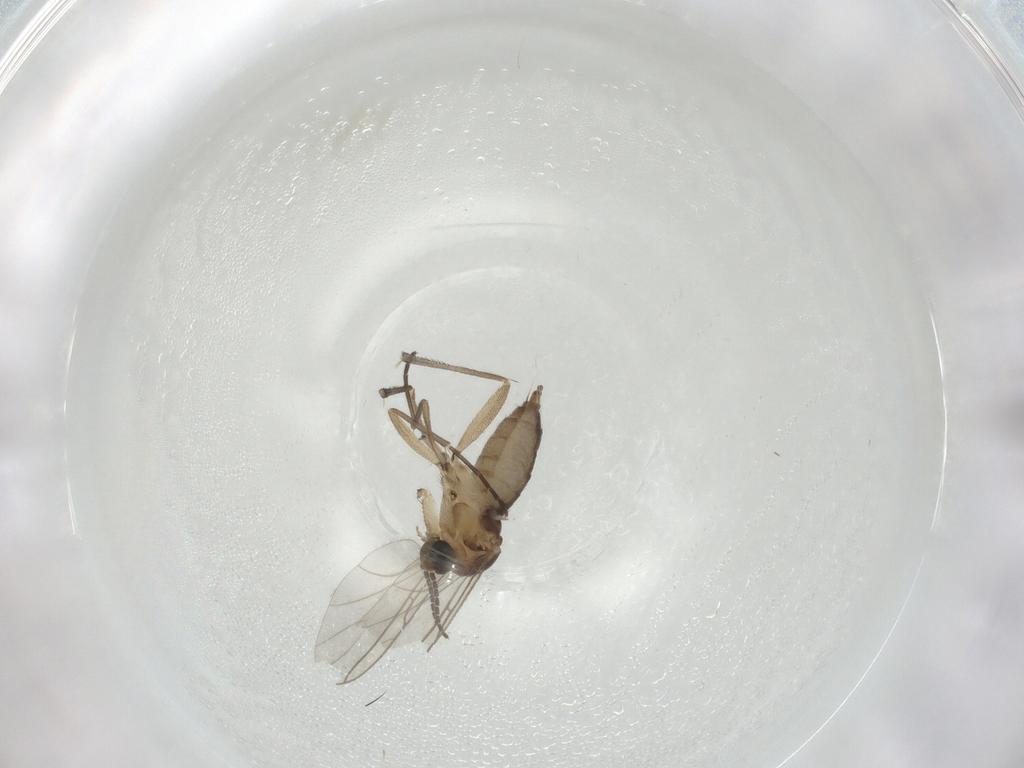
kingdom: Animalia
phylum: Arthropoda
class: Insecta
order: Diptera
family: Sciaridae
